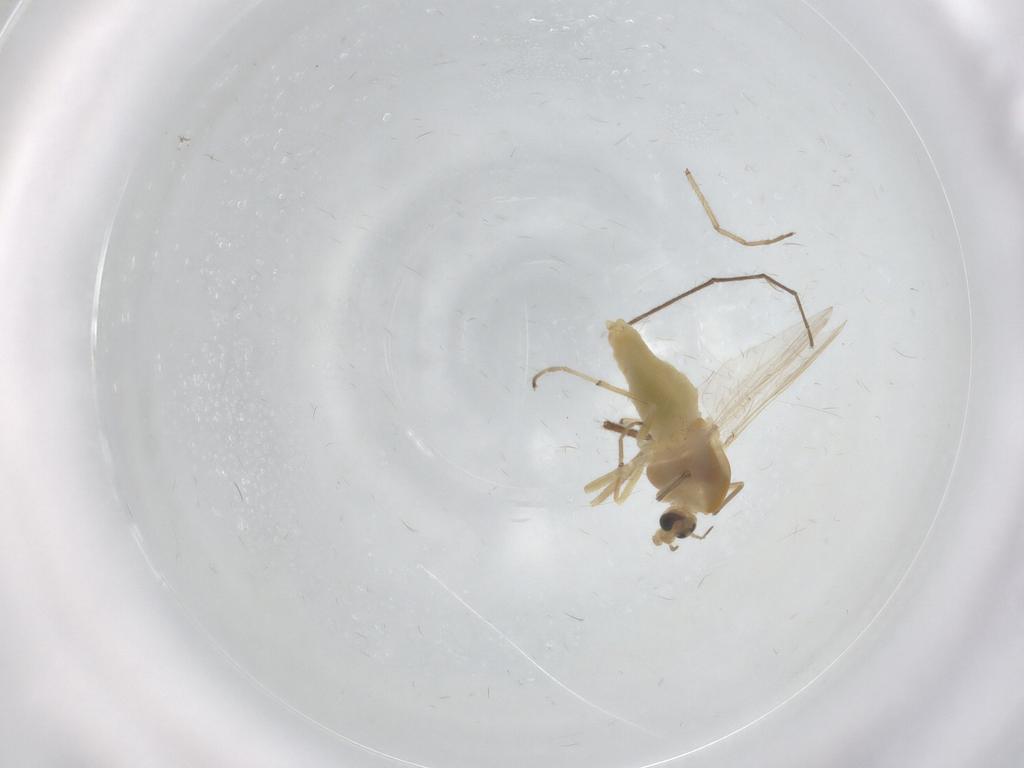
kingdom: Animalia
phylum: Arthropoda
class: Insecta
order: Diptera
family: Chironomidae
